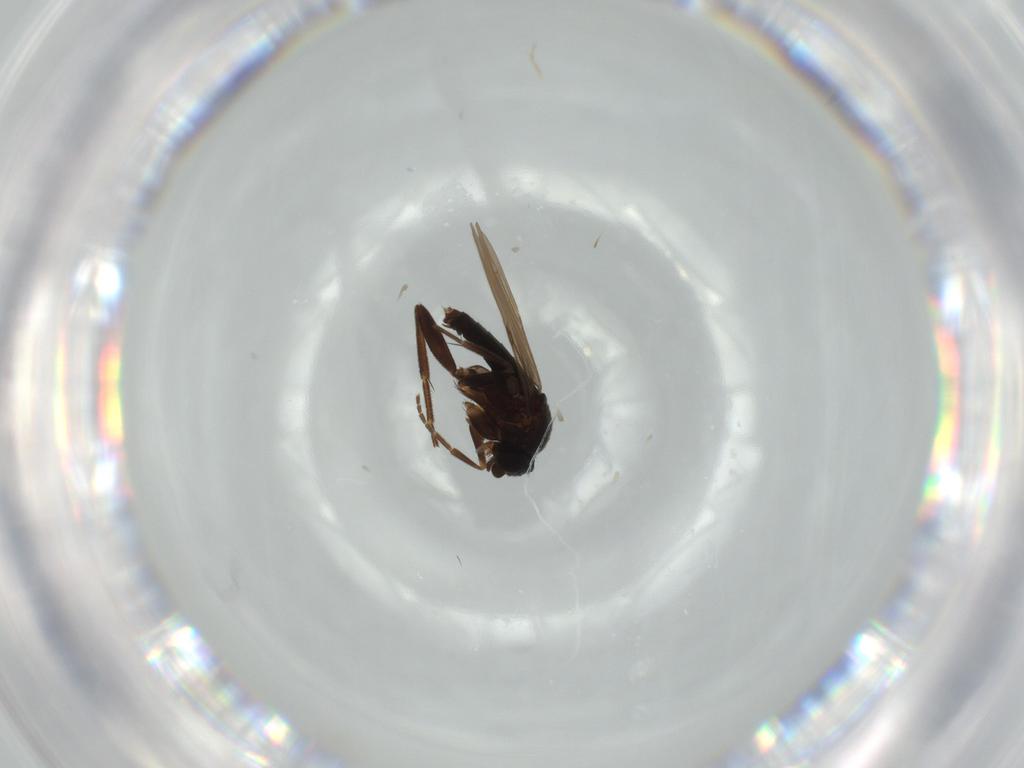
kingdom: Animalia
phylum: Arthropoda
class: Insecta
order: Diptera
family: Phoridae
